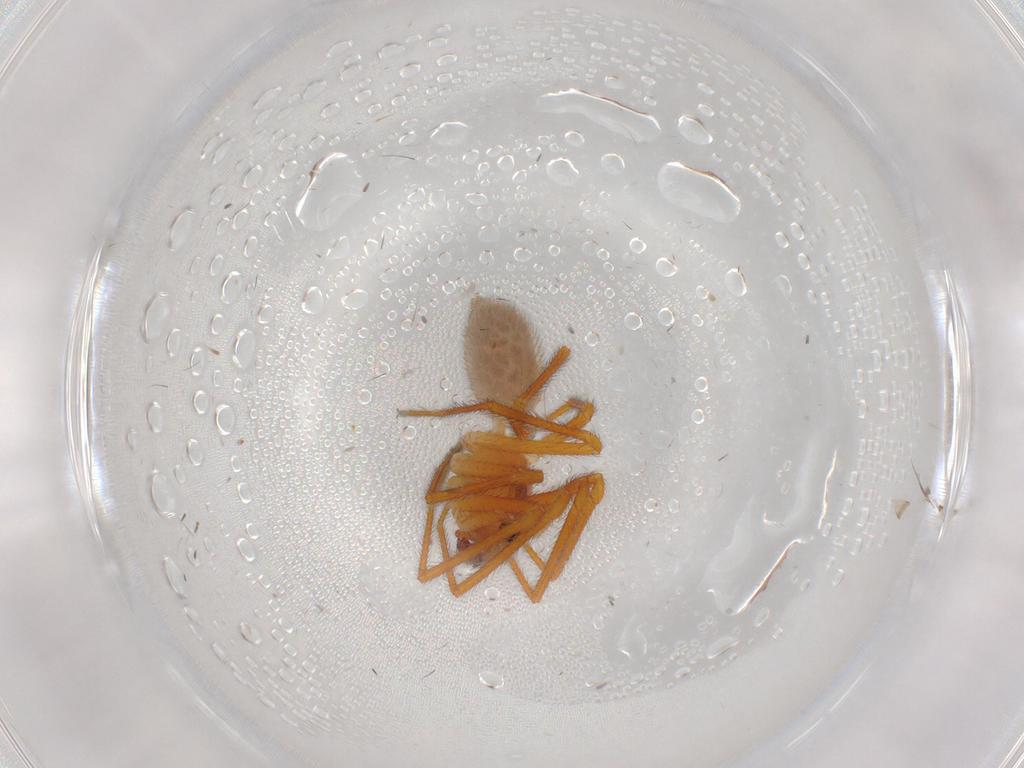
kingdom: Animalia
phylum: Arthropoda
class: Arachnida
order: Araneae
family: Linyphiidae
